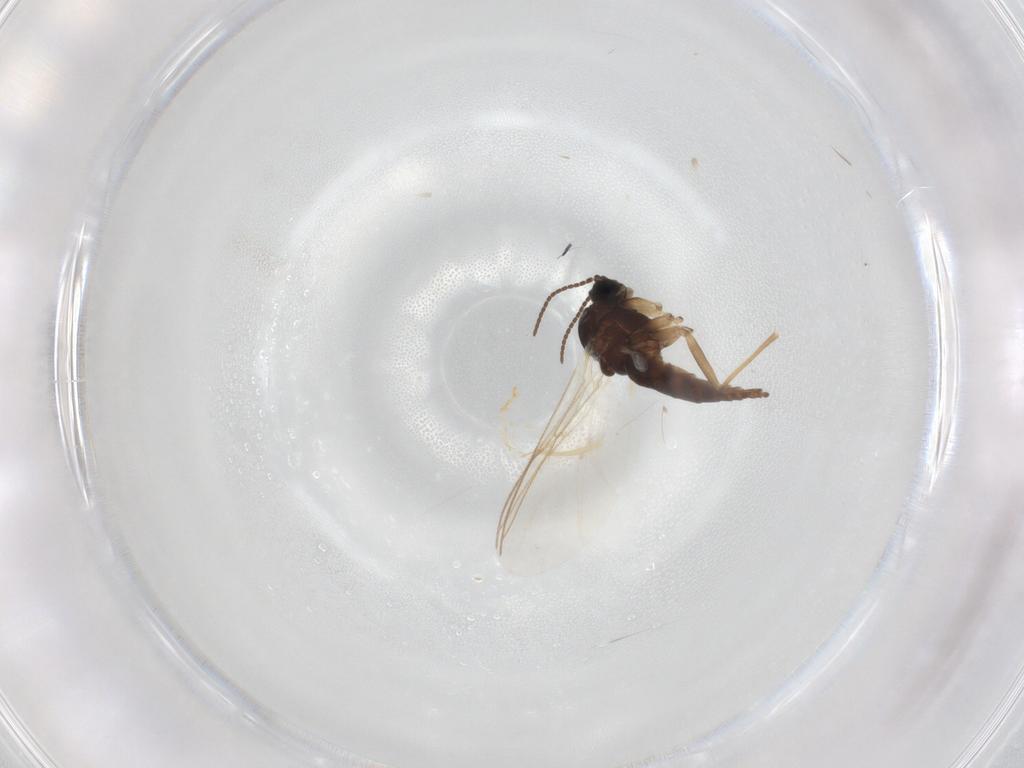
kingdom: Animalia
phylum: Arthropoda
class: Insecta
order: Diptera
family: Sciaridae
